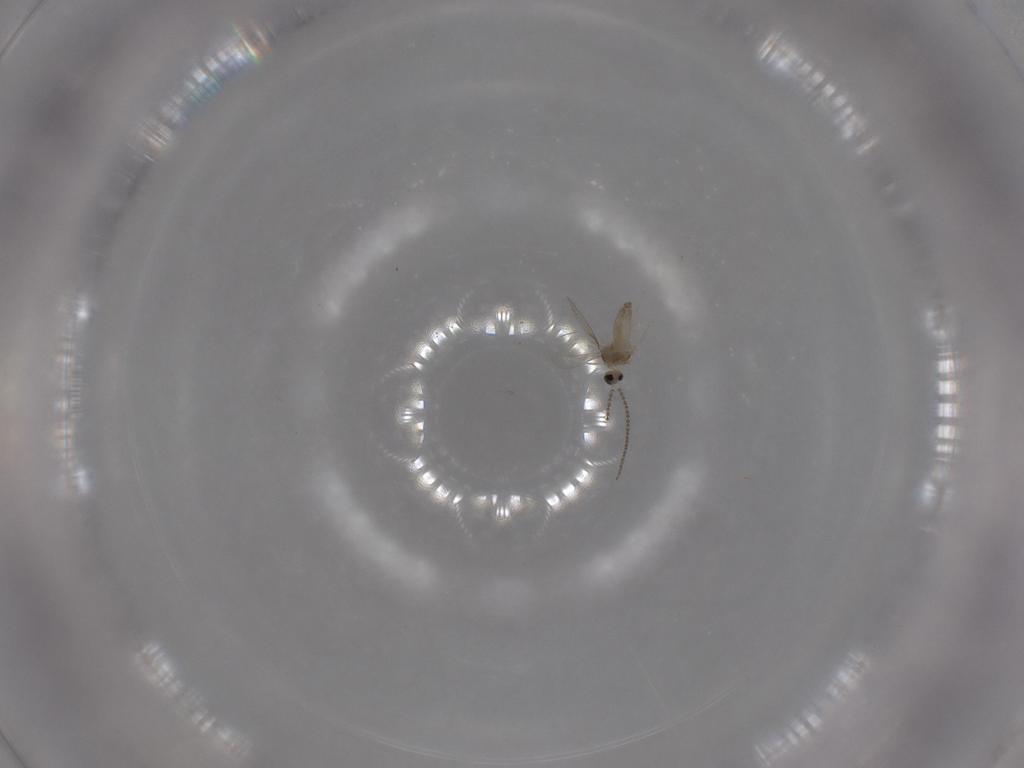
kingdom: Animalia
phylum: Arthropoda
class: Insecta
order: Diptera
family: Cecidomyiidae
